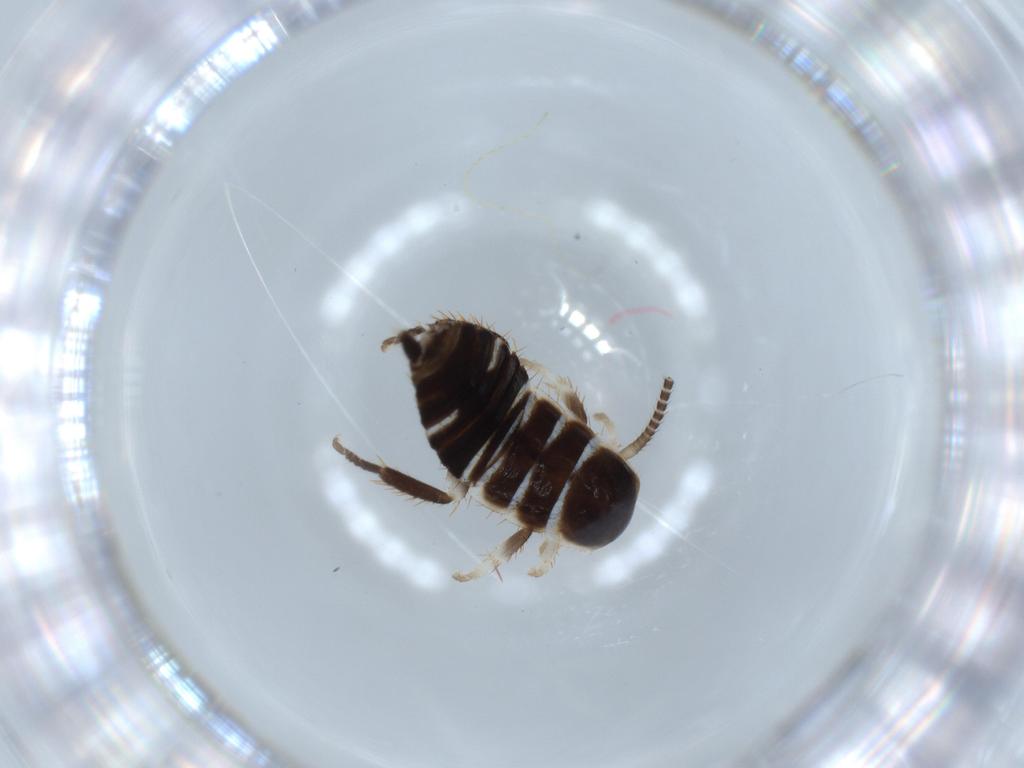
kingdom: Animalia
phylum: Arthropoda
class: Insecta
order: Blattodea
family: Ectobiidae
